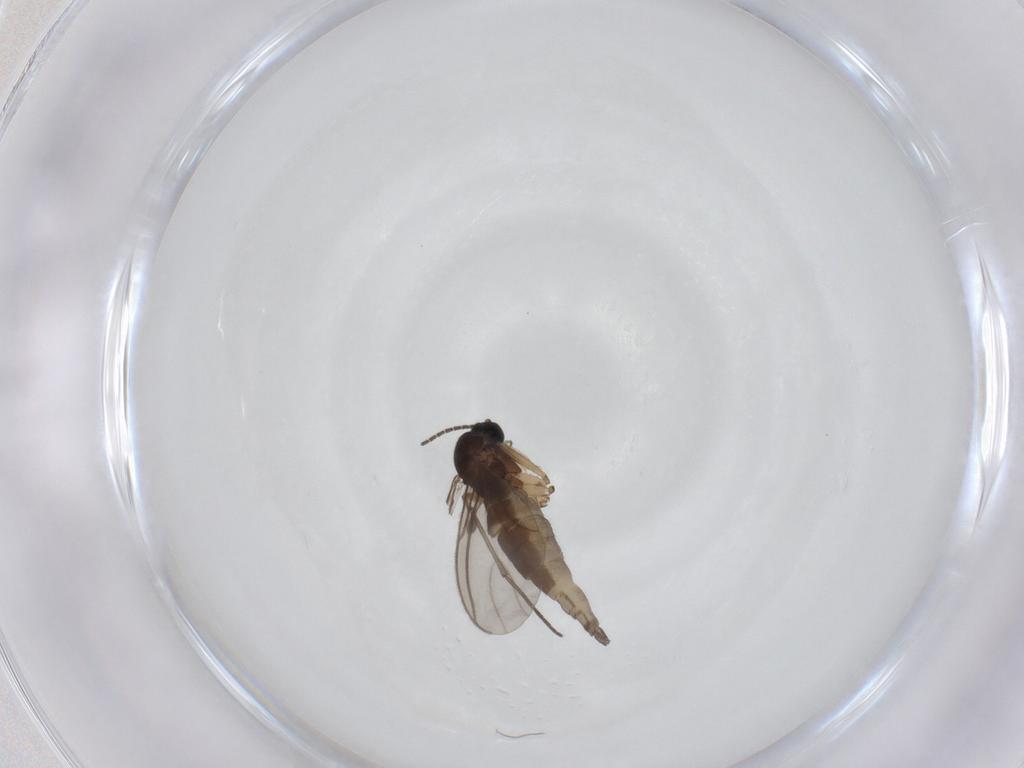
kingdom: Animalia
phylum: Arthropoda
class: Insecta
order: Diptera
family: Sciaridae
